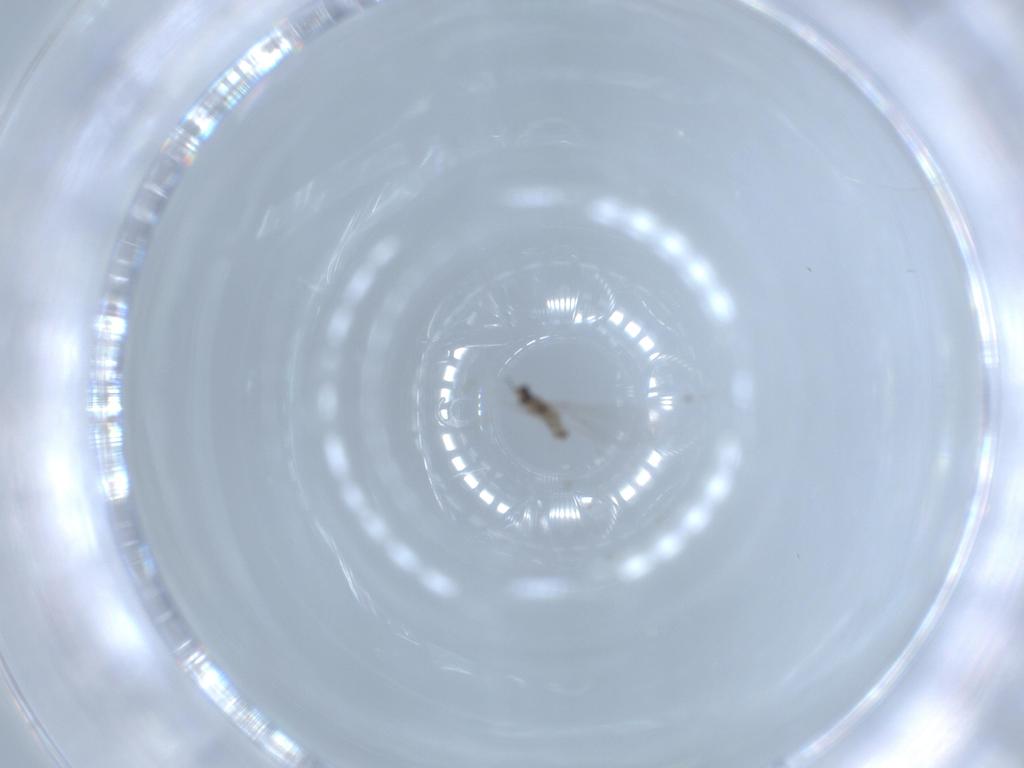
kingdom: Animalia
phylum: Arthropoda
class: Insecta
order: Diptera
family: Cecidomyiidae
